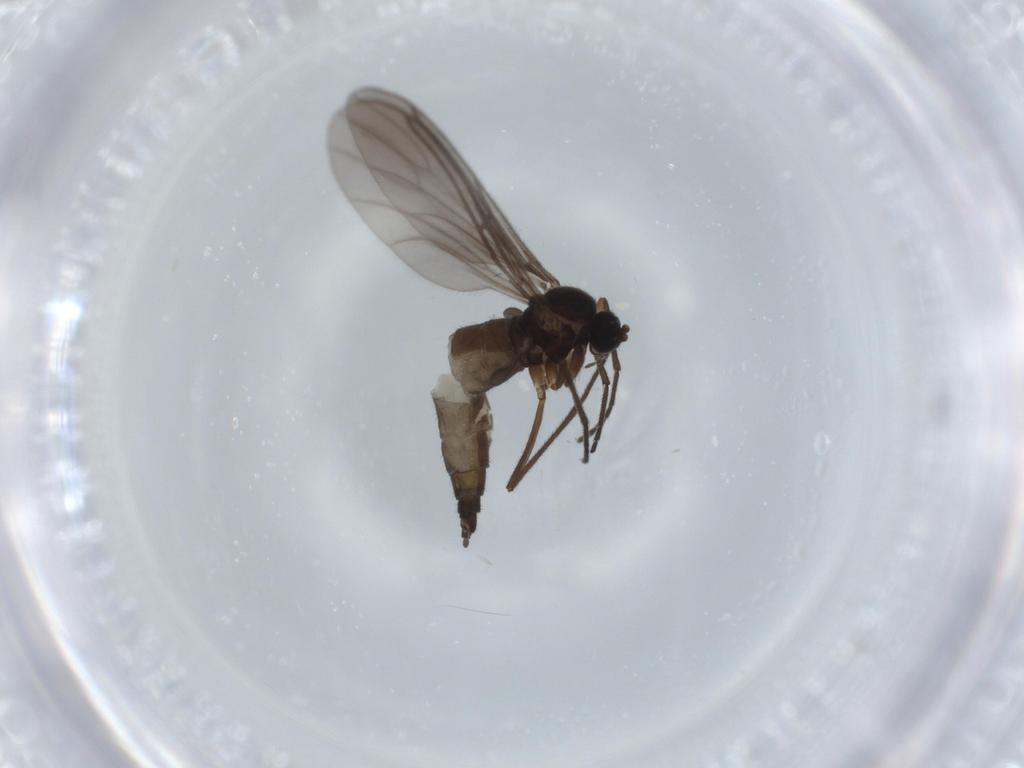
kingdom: Animalia
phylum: Arthropoda
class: Insecta
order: Diptera
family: Sciaridae
